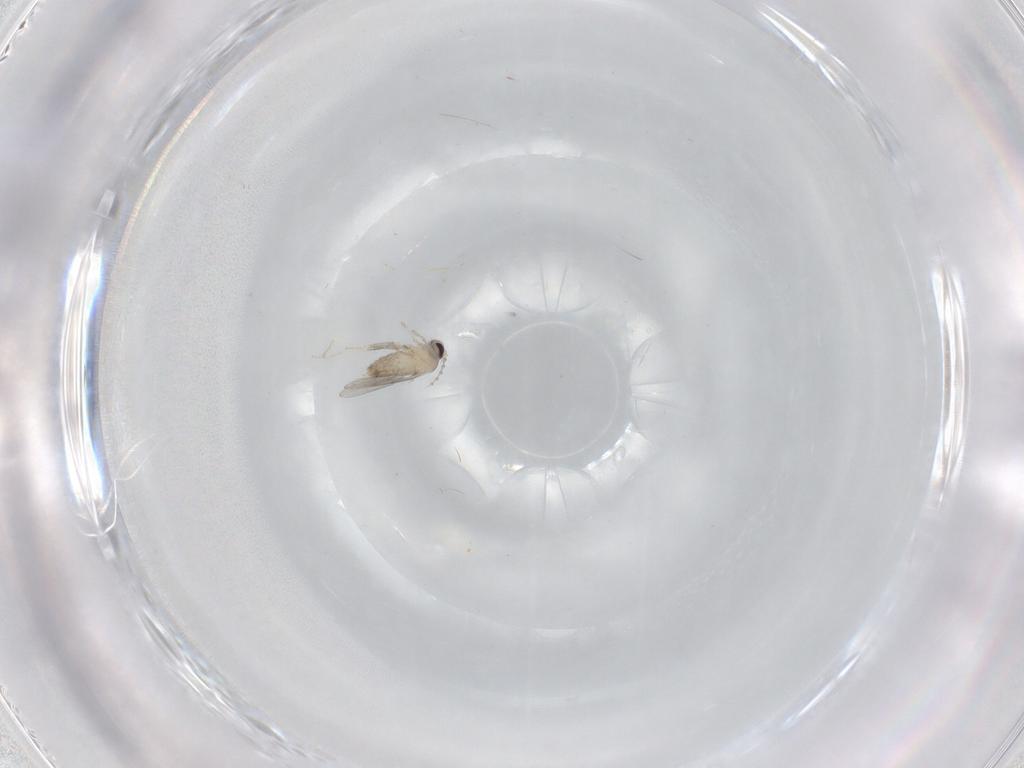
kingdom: Animalia
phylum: Arthropoda
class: Insecta
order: Diptera
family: Cecidomyiidae
